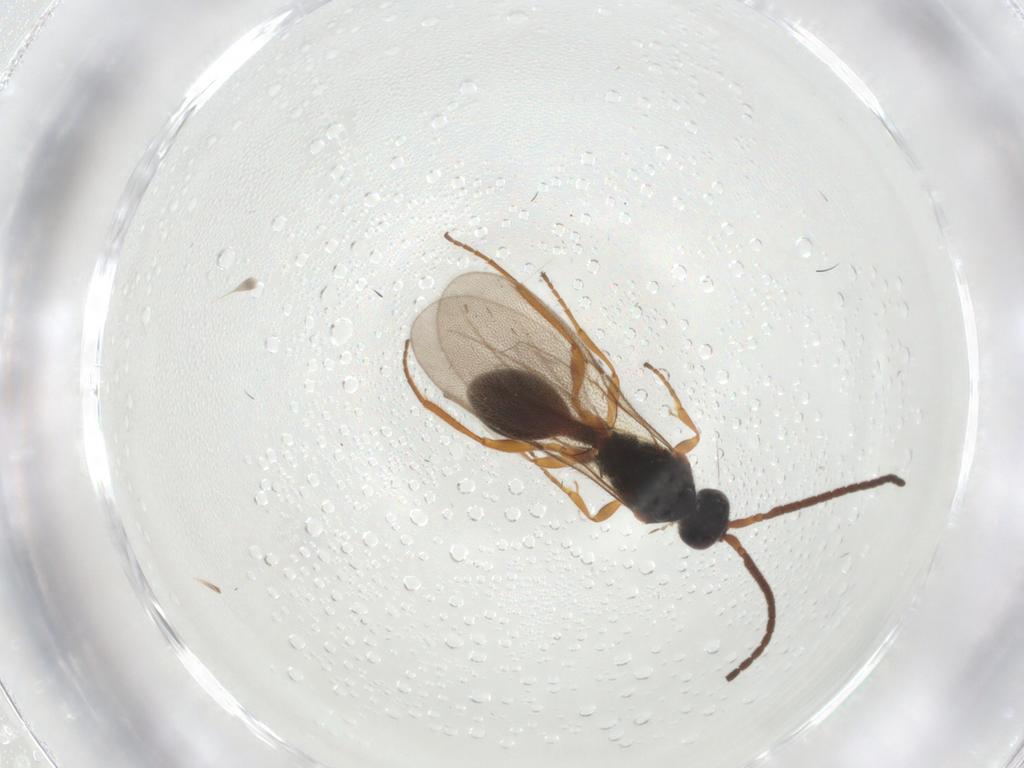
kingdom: Animalia
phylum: Arthropoda
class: Insecta
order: Hymenoptera
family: Diapriidae
